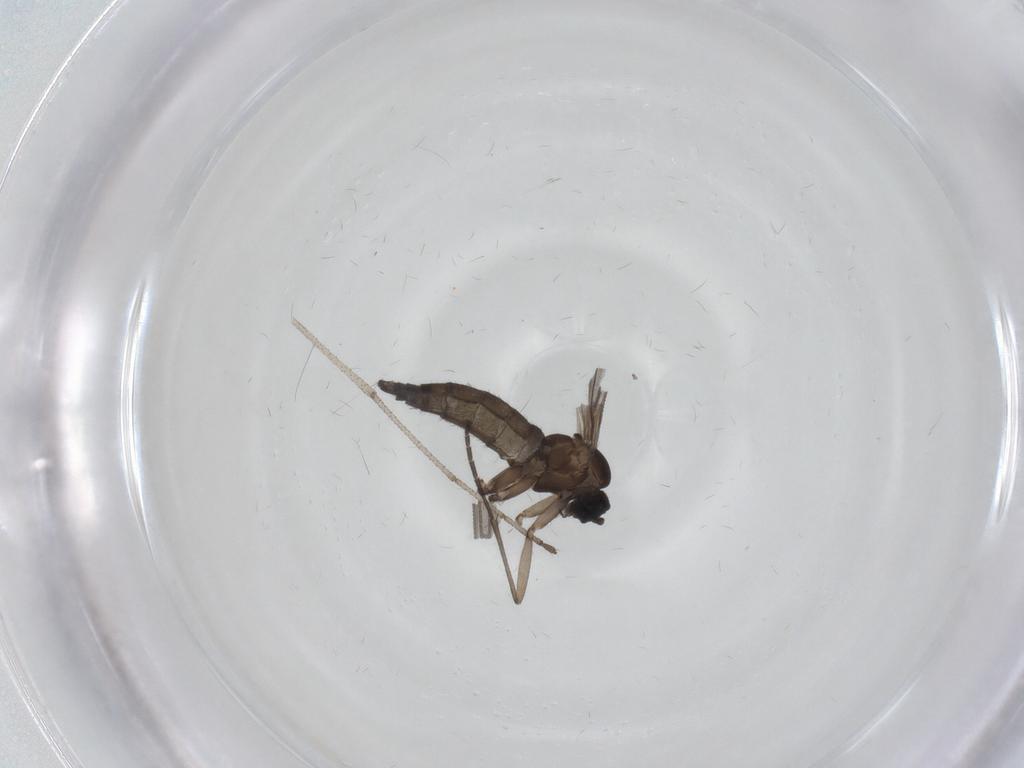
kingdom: Animalia
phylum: Arthropoda
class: Insecta
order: Diptera
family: Sciaridae
